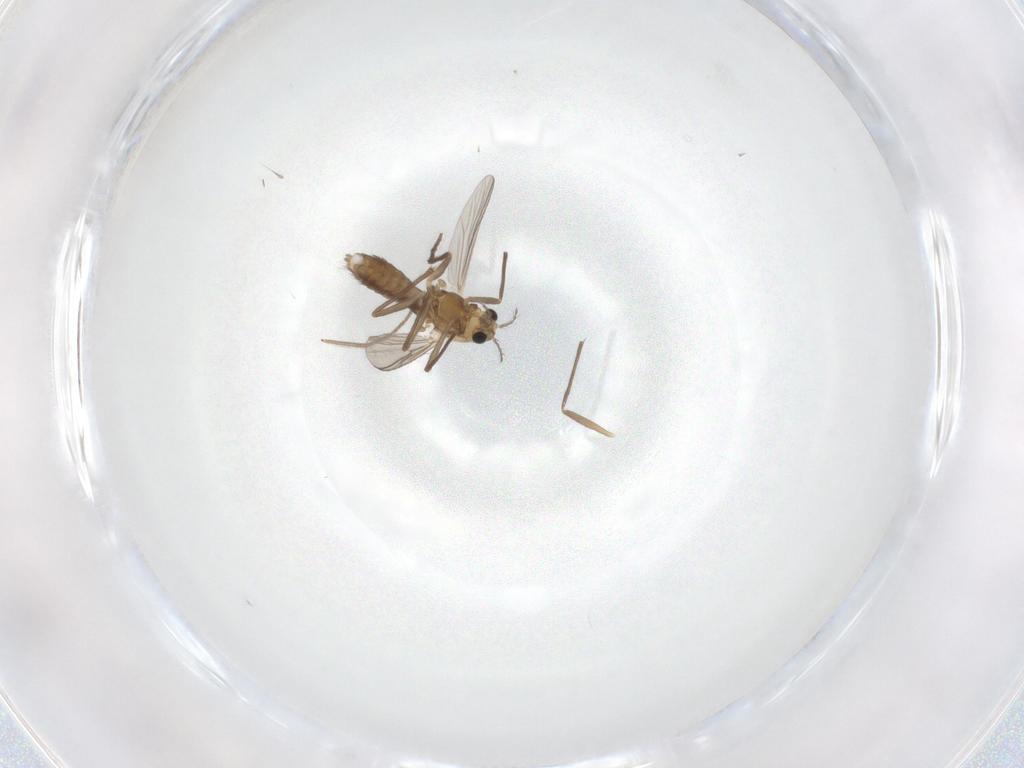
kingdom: Animalia
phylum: Arthropoda
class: Insecta
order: Diptera
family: Chironomidae
